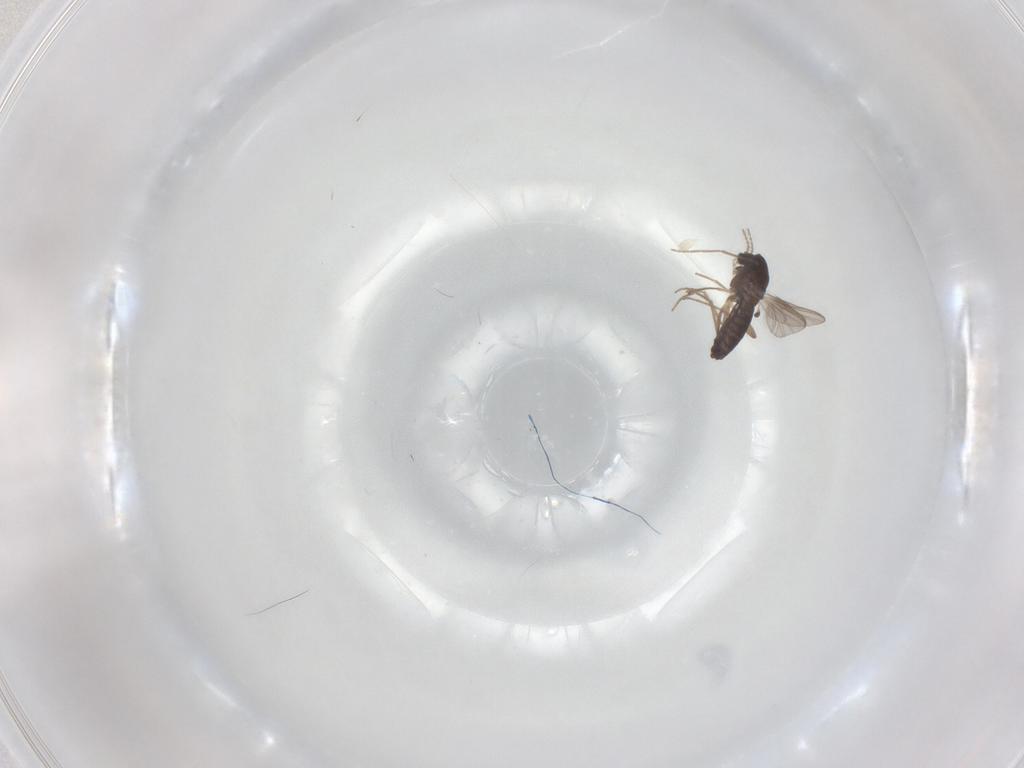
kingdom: Animalia
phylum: Arthropoda
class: Insecta
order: Diptera
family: Chironomidae
